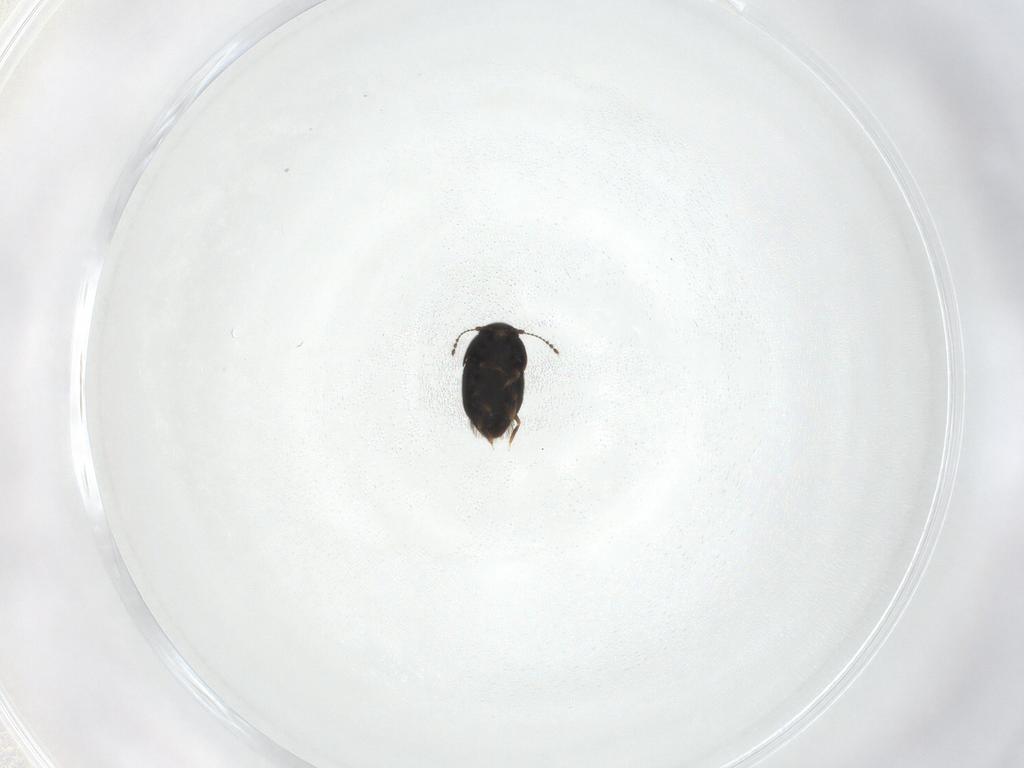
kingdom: Animalia
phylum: Arthropoda
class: Insecta
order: Coleoptera
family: Ptiliidae
